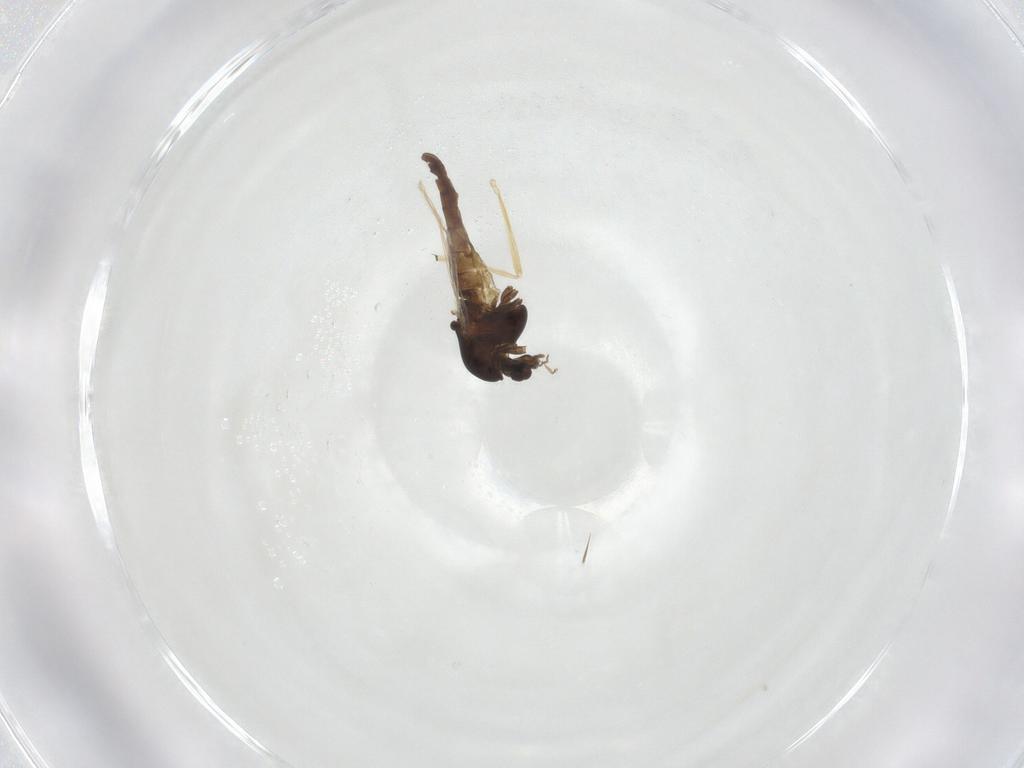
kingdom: Animalia
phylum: Arthropoda
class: Insecta
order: Diptera
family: Chironomidae
